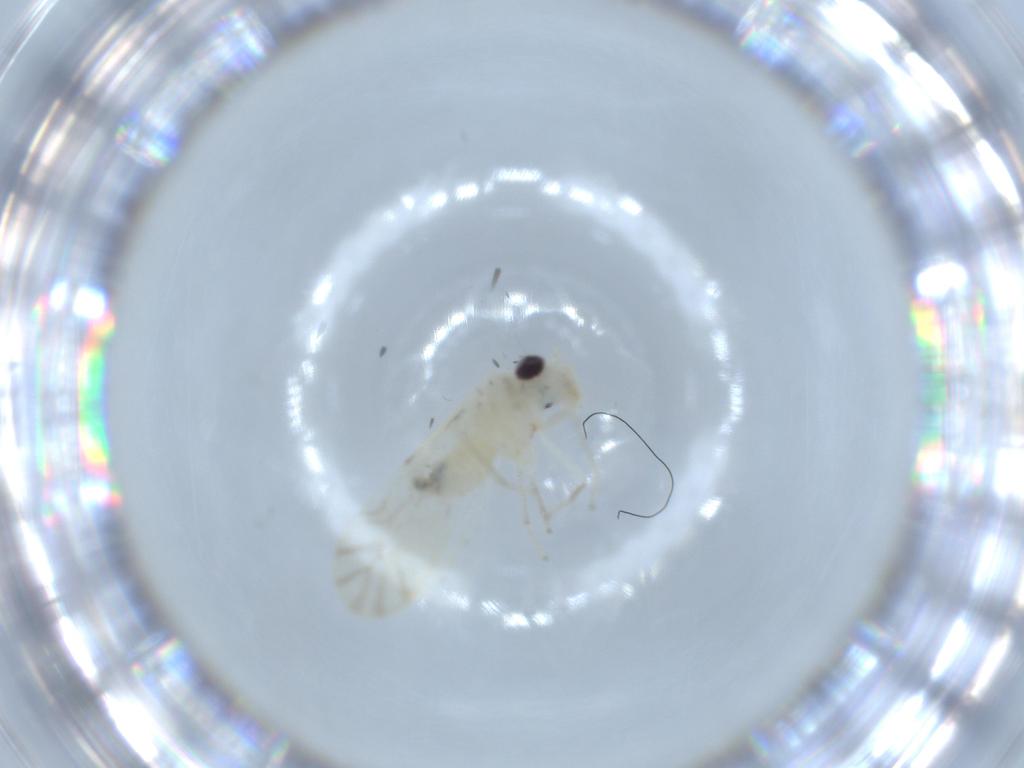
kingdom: Animalia
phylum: Arthropoda
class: Insecta
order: Psocodea
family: Caeciliusidae
